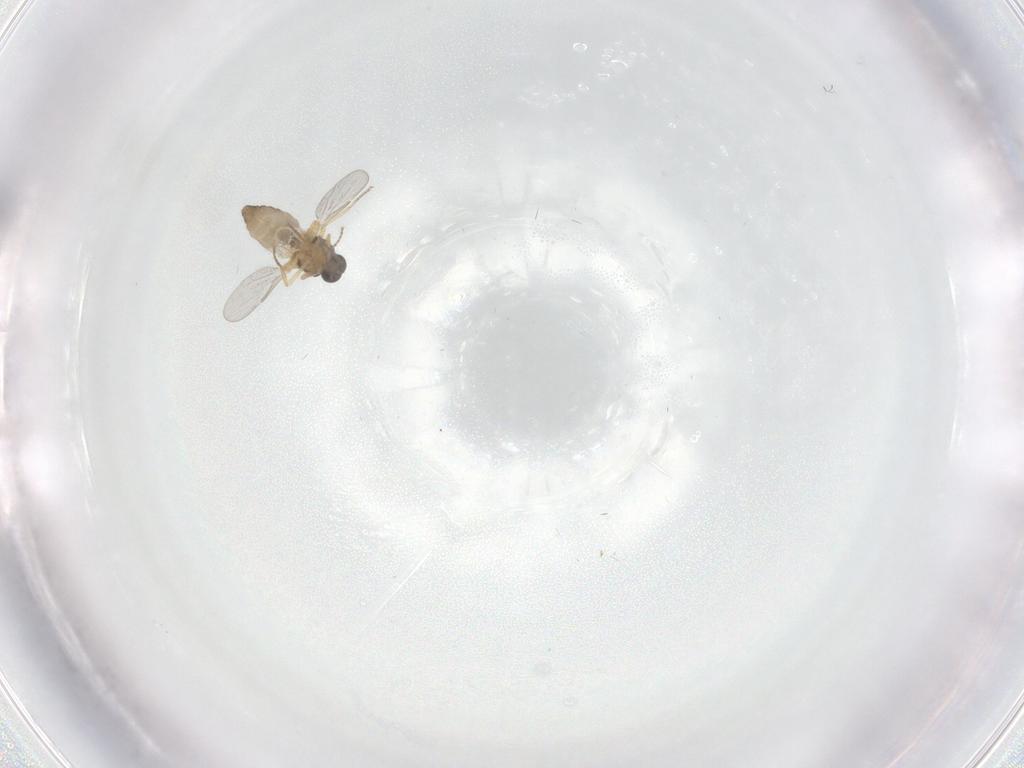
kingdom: Animalia
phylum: Arthropoda
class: Insecta
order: Diptera
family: Ceratopogonidae
